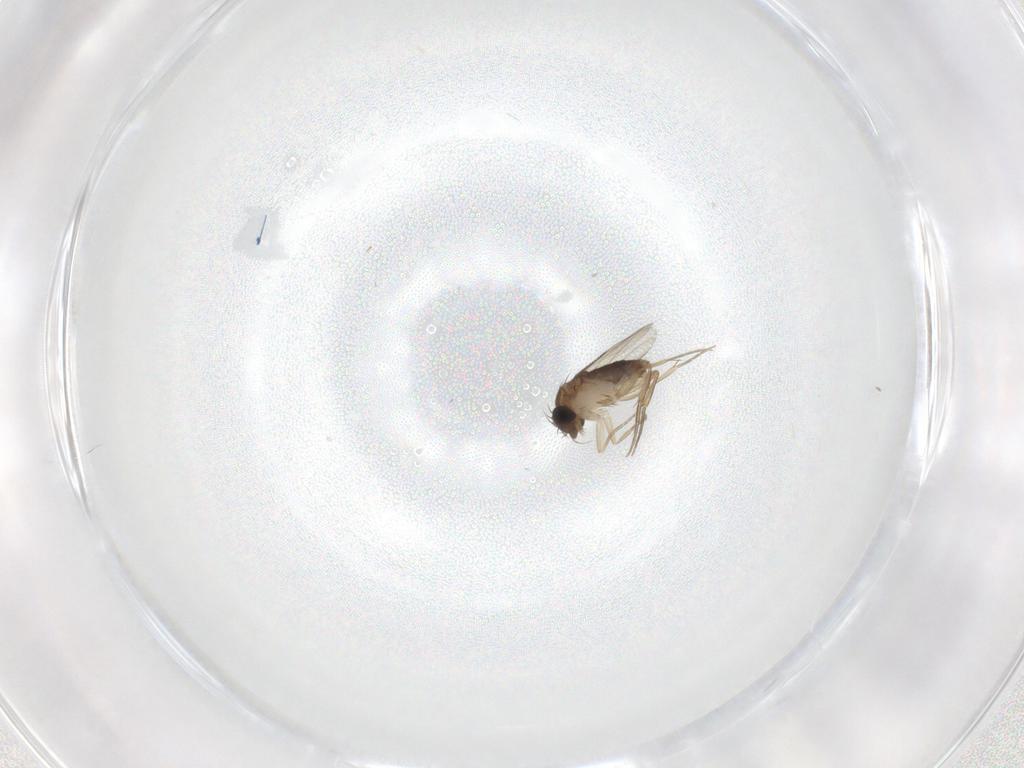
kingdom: Animalia
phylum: Arthropoda
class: Insecta
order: Diptera
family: Phoridae
